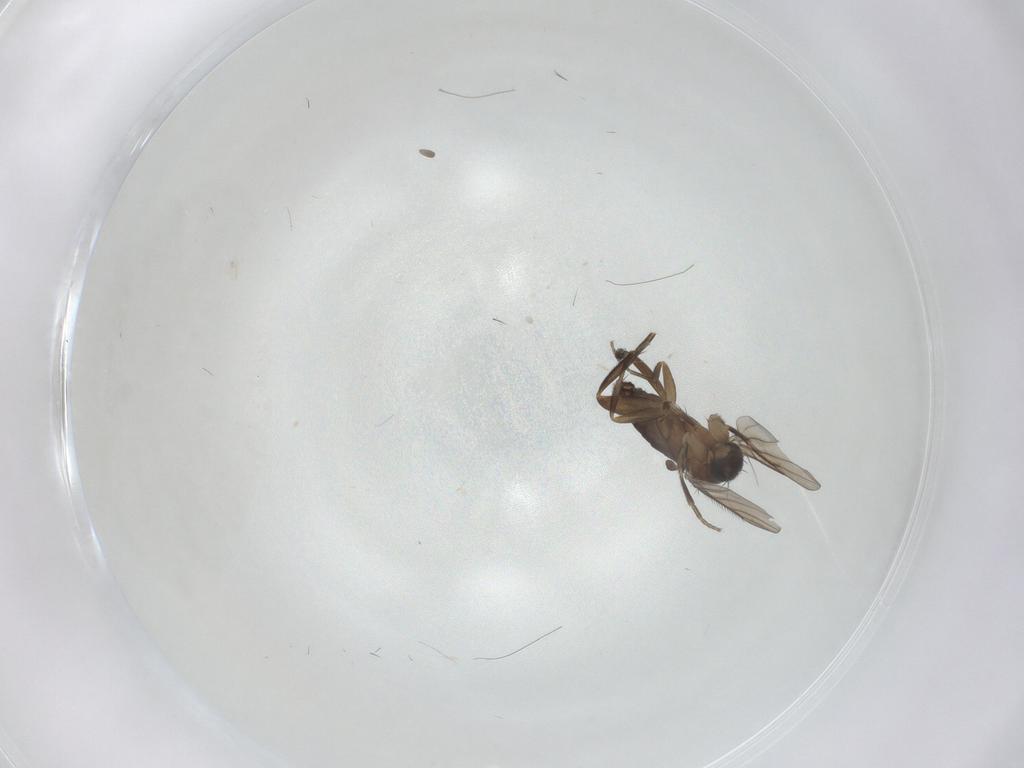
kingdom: Animalia
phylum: Arthropoda
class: Insecta
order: Diptera
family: Phoridae
